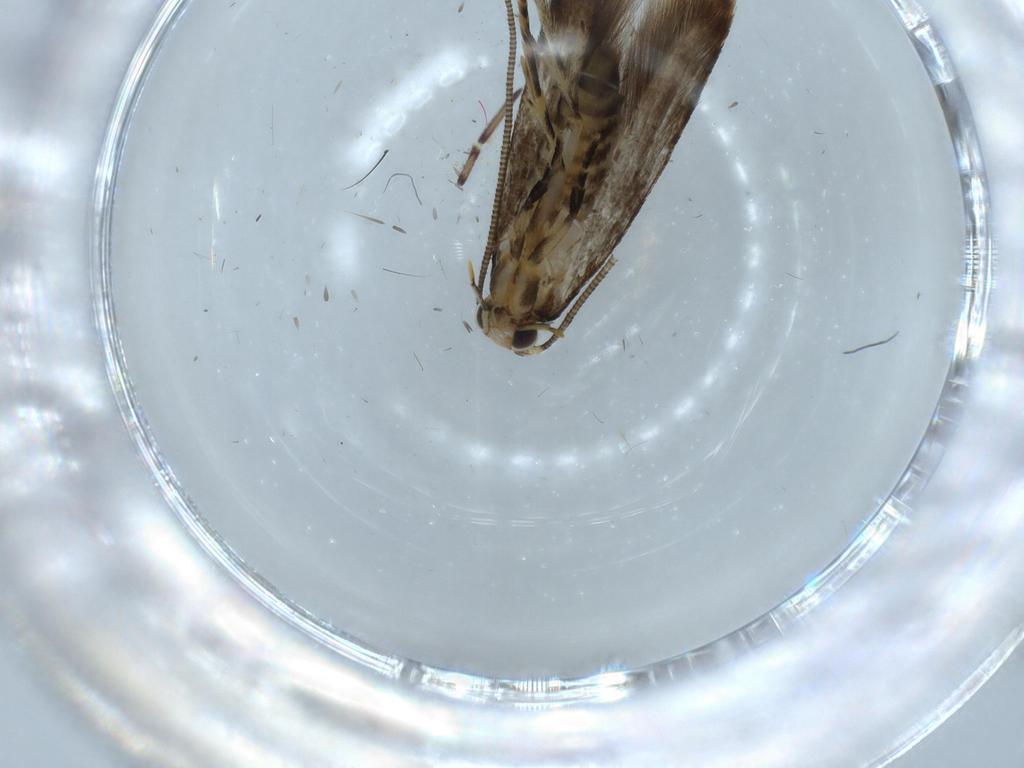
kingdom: Animalia
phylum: Arthropoda
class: Insecta
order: Lepidoptera
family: Tineidae
